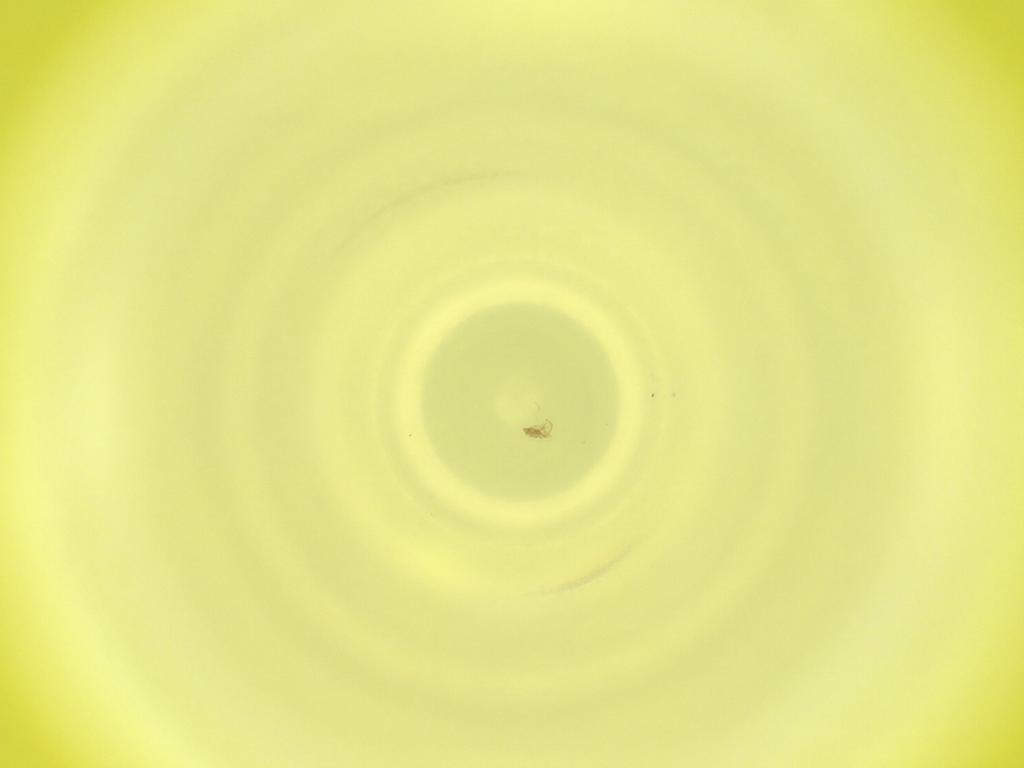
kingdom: Animalia
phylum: Arthropoda
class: Insecta
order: Diptera
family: Cecidomyiidae
